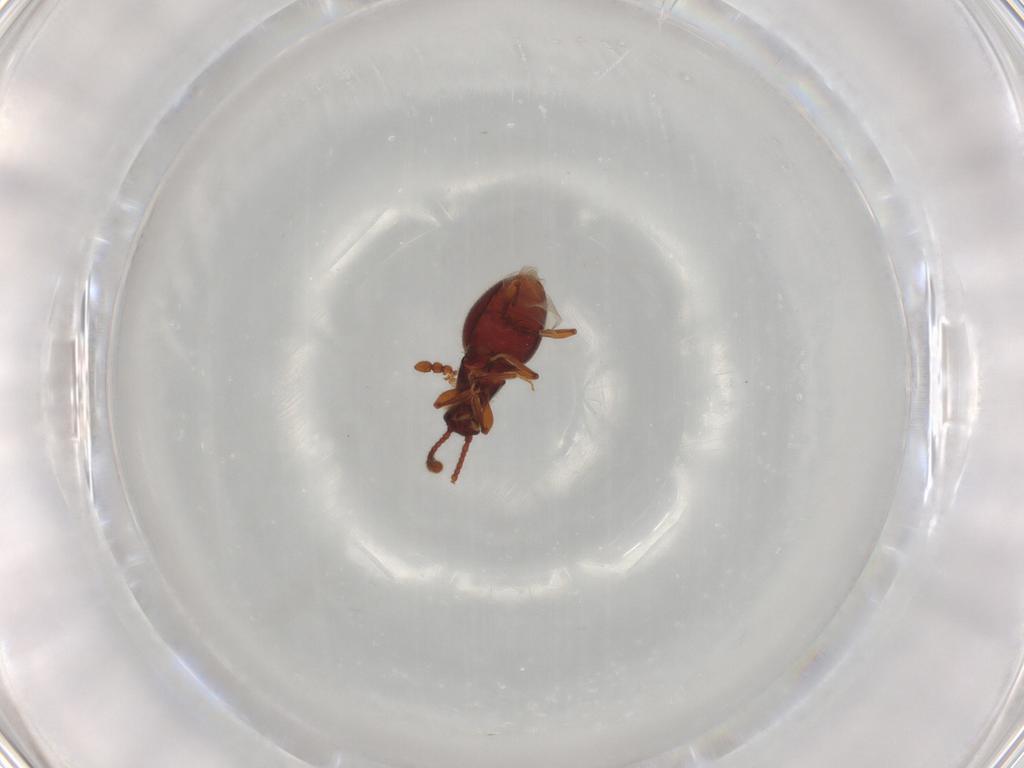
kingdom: Animalia
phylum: Arthropoda
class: Insecta
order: Coleoptera
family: Staphylinidae
